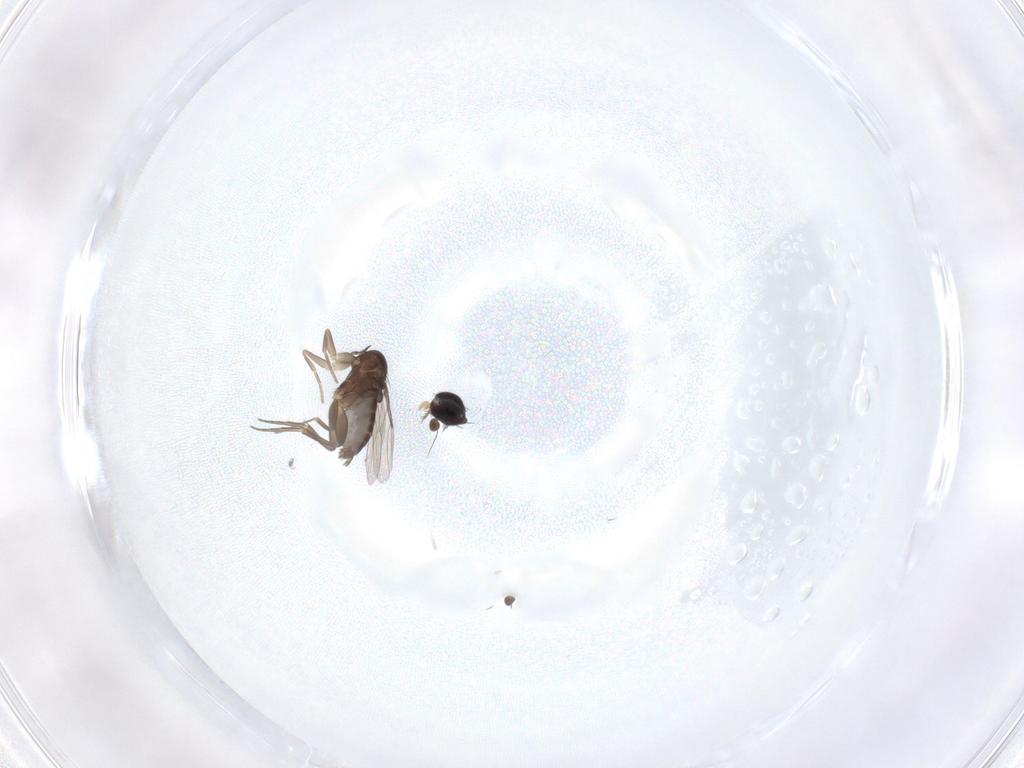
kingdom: Animalia
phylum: Arthropoda
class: Insecta
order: Diptera
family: Phoridae
